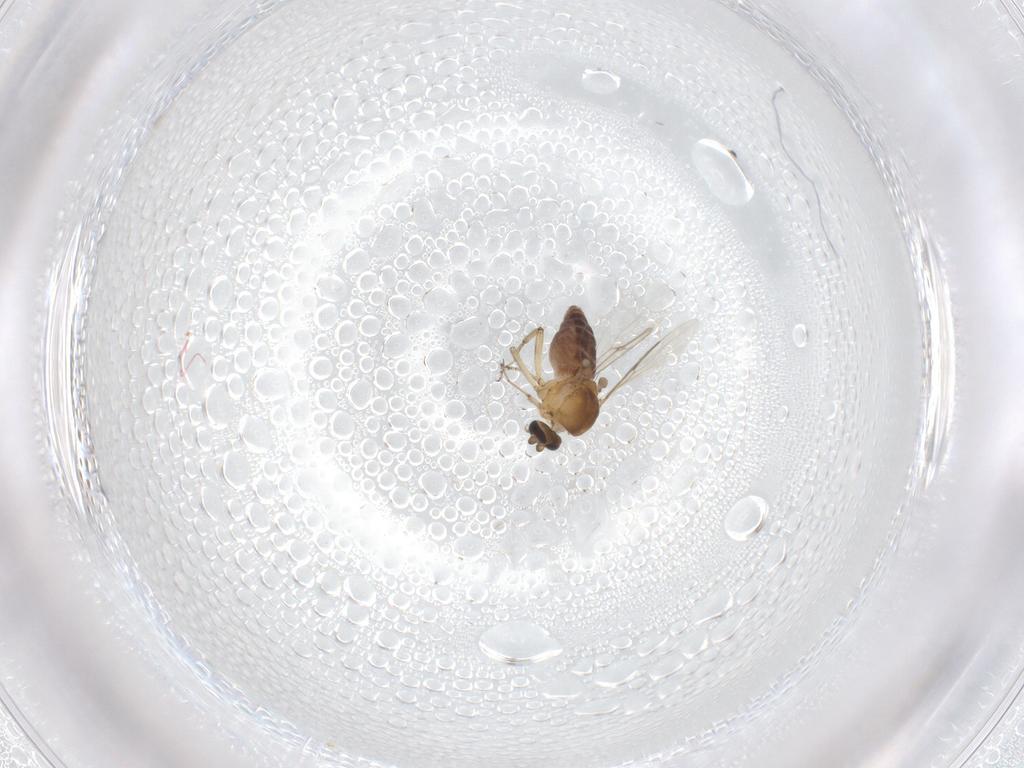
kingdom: Animalia
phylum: Arthropoda
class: Insecta
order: Diptera
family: Ceratopogonidae
